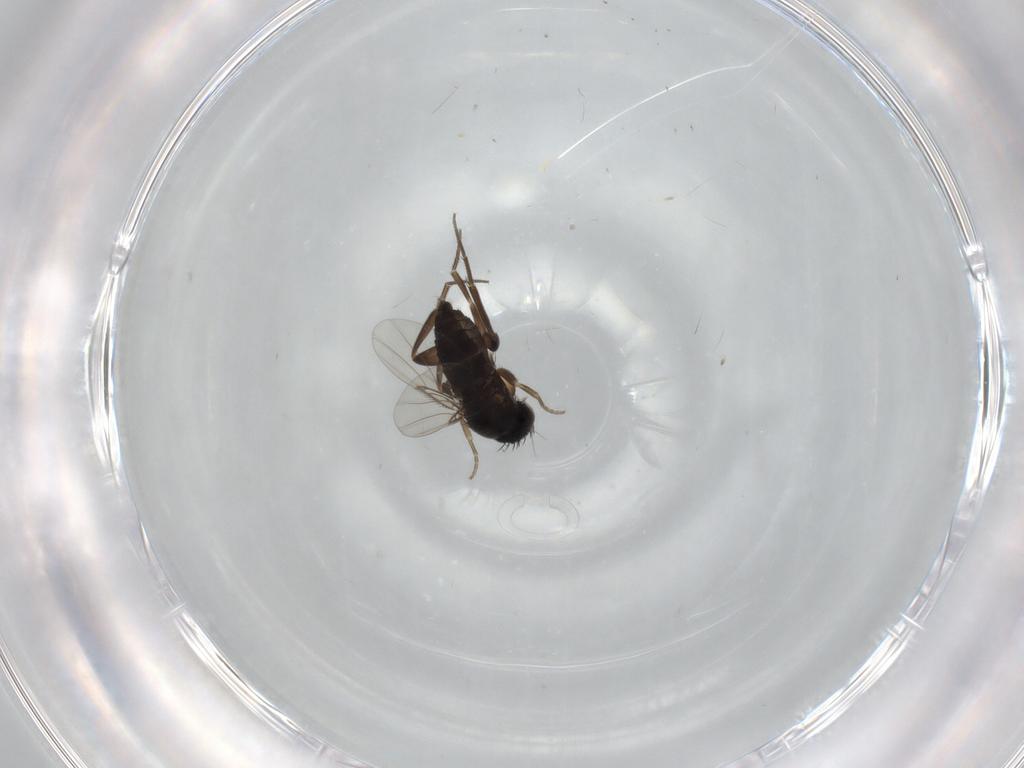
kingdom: Animalia
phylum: Arthropoda
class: Insecta
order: Diptera
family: Phoridae
